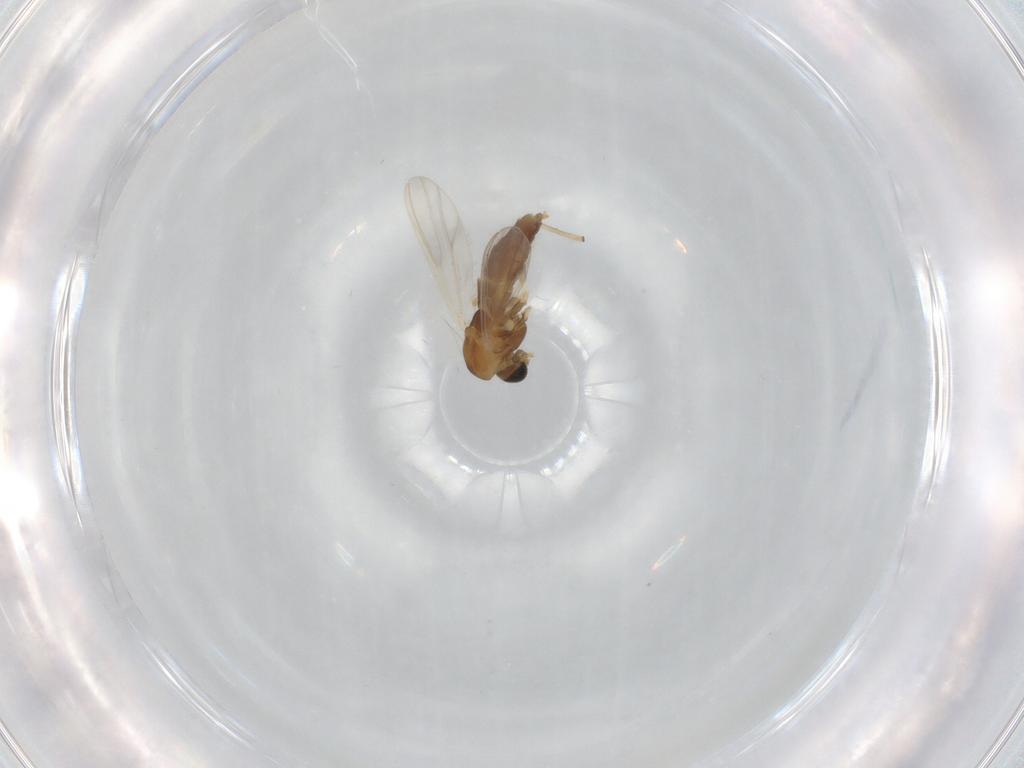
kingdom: Animalia
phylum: Arthropoda
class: Insecta
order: Diptera
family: Chironomidae
